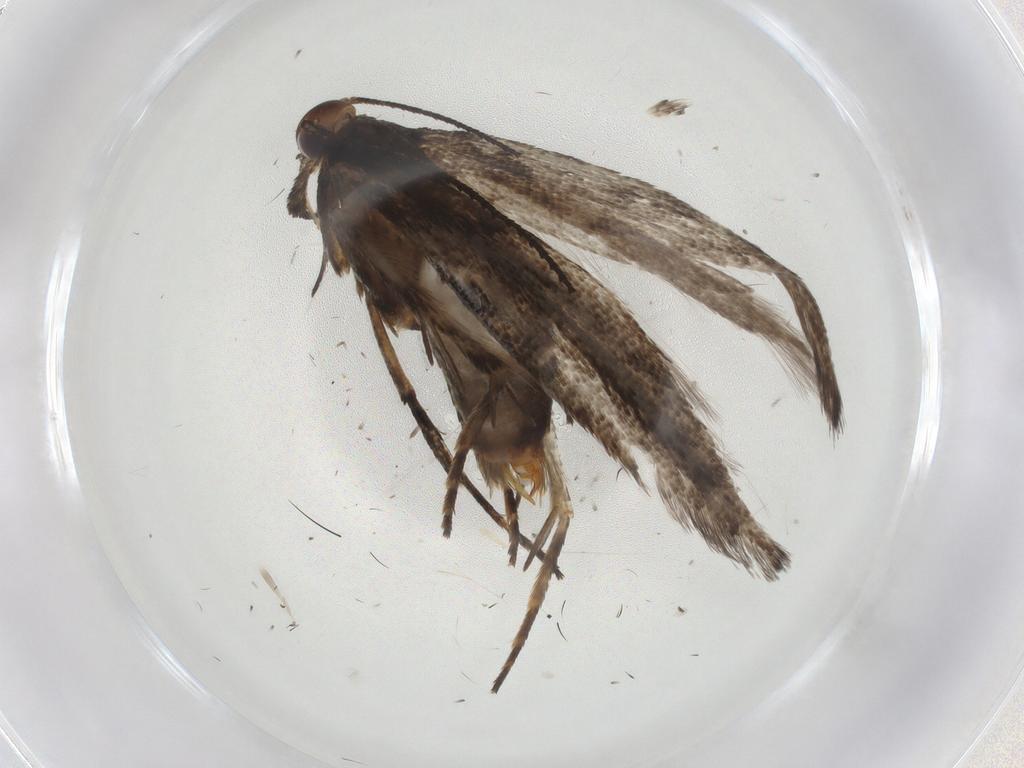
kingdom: Animalia
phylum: Arthropoda
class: Insecta
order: Lepidoptera
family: Gelechiidae
